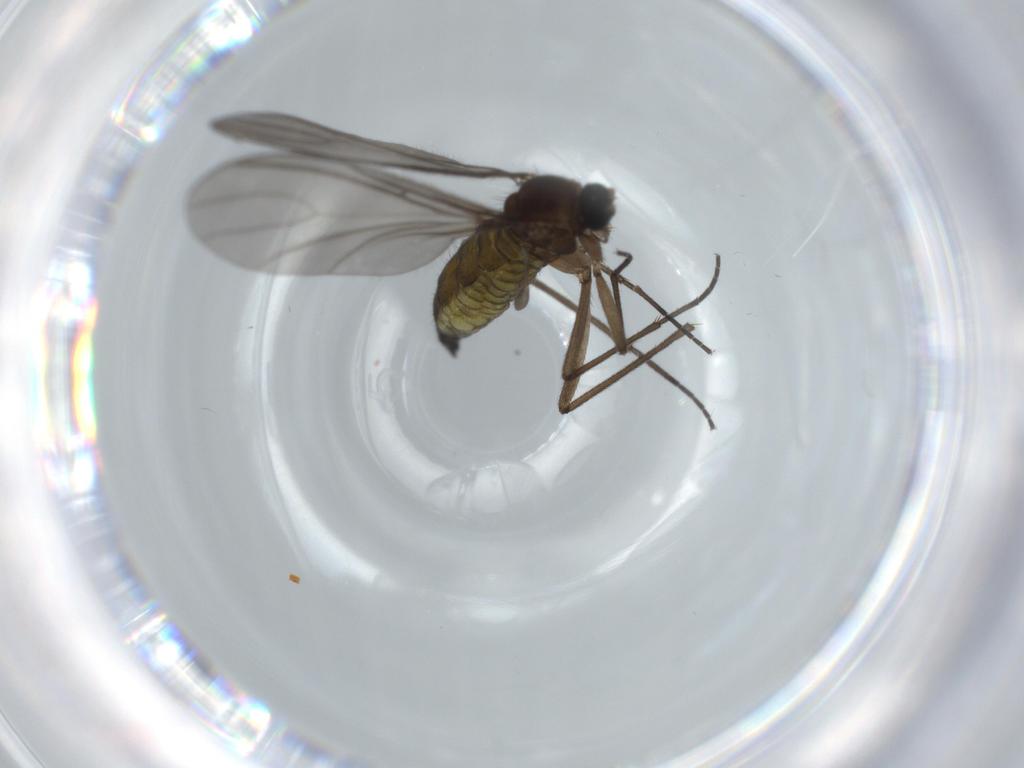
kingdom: Animalia
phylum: Arthropoda
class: Insecta
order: Diptera
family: Sciaridae
